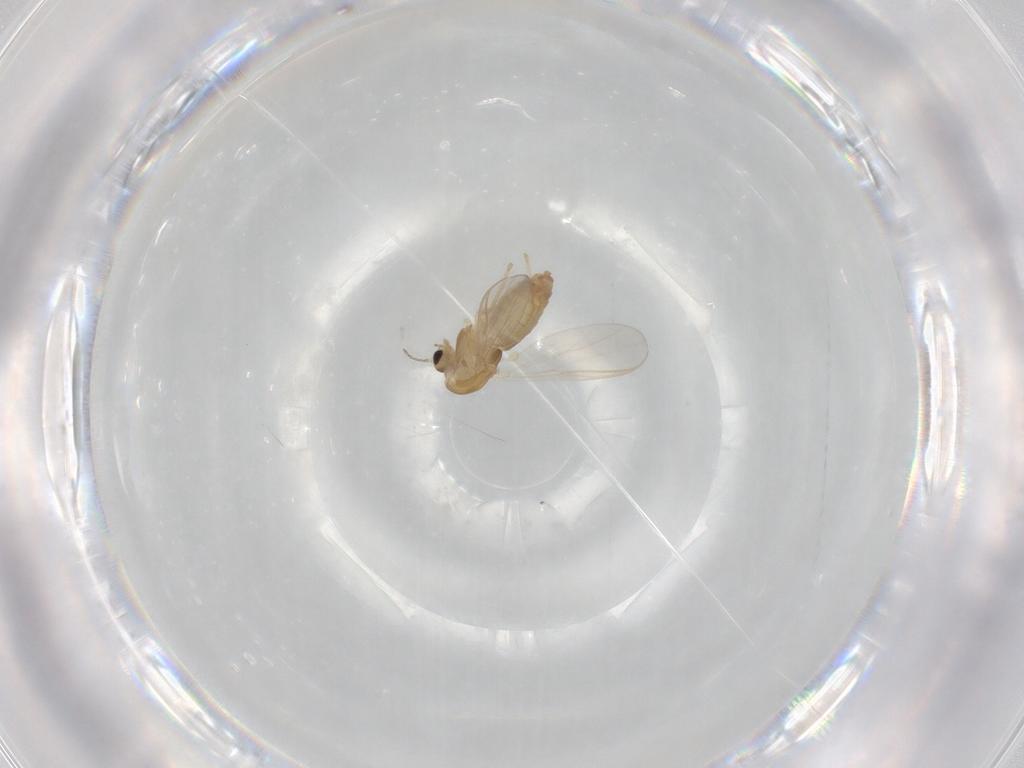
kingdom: Animalia
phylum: Arthropoda
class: Insecta
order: Diptera
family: Chironomidae
